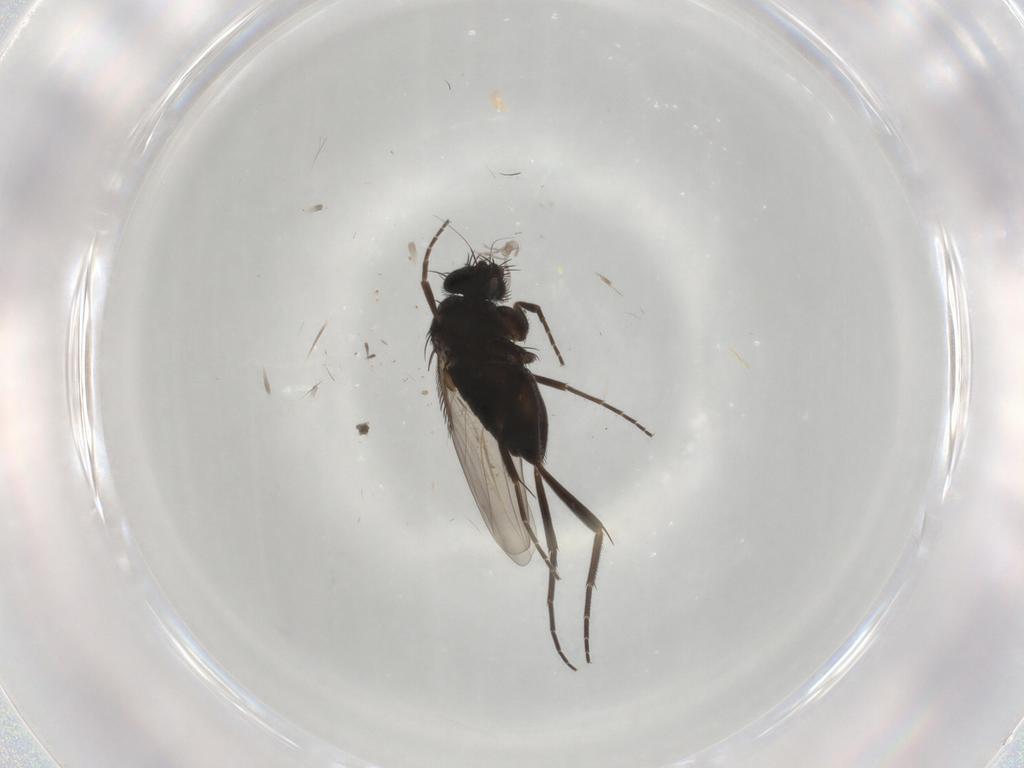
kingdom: Animalia
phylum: Arthropoda
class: Insecta
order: Diptera
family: Phoridae
